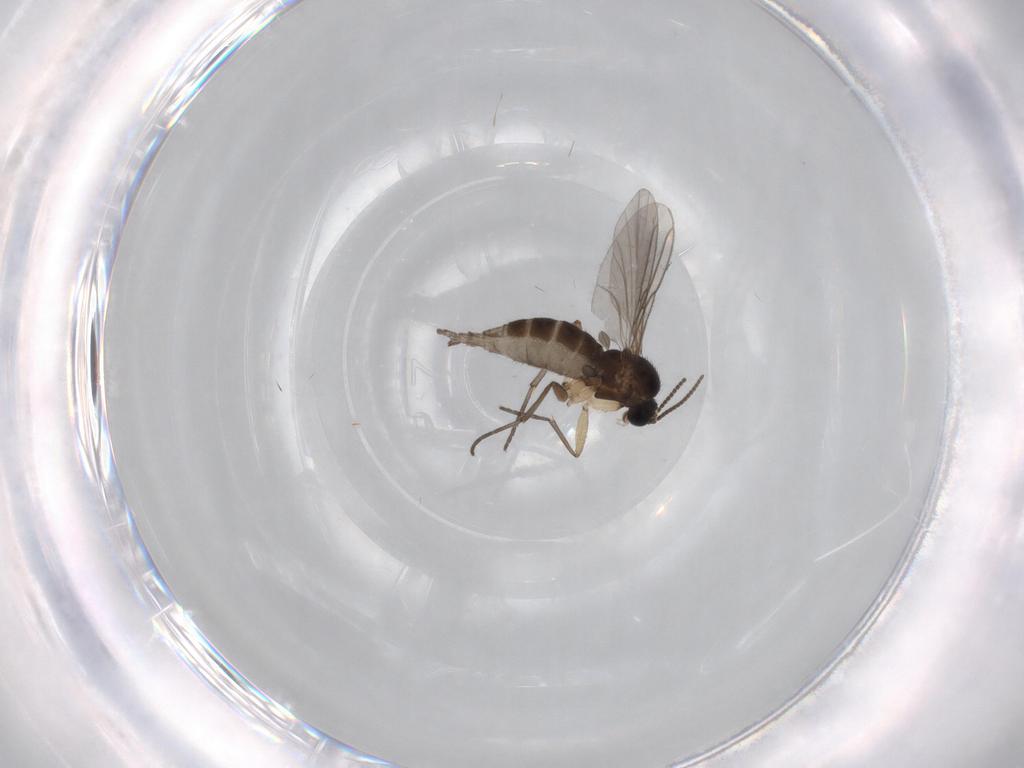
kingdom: Animalia
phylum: Arthropoda
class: Insecta
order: Diptera
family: Sciaridae
